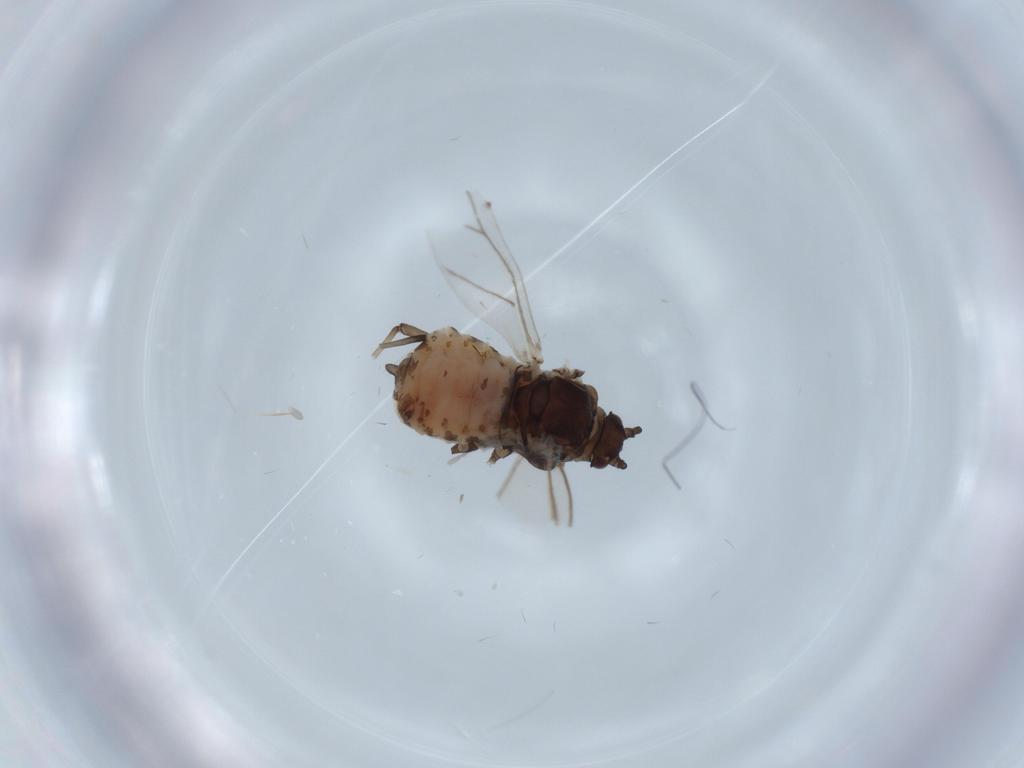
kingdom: Animalia
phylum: Arthropoda
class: Insecta
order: Hemiptera
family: Aphididae
